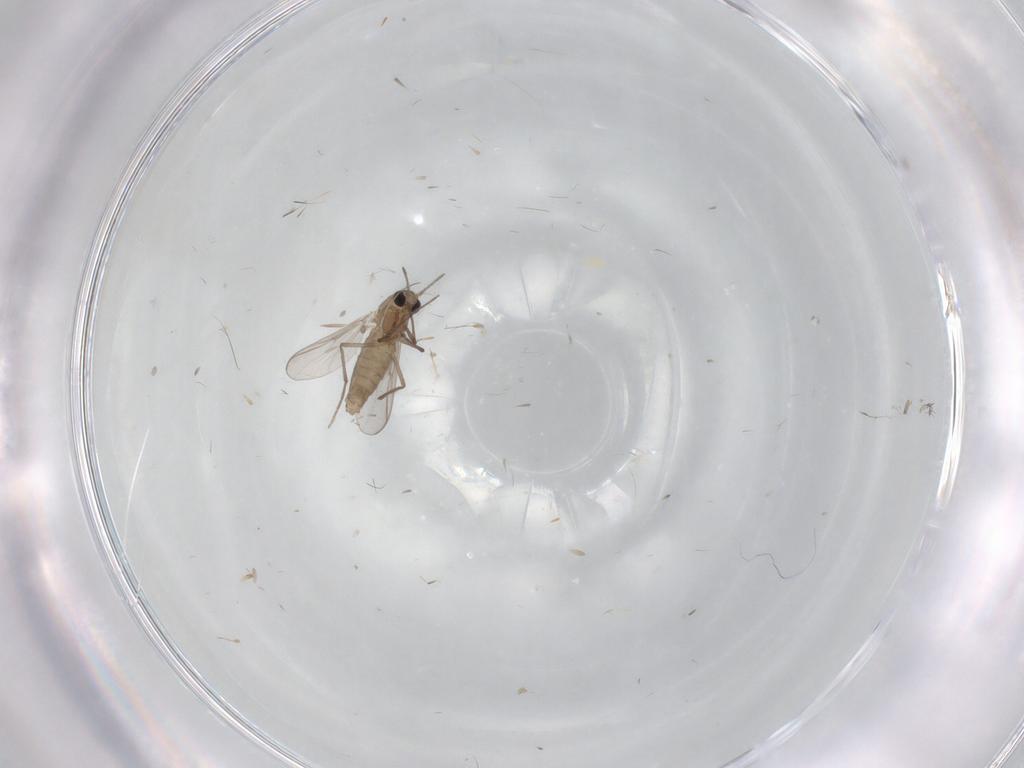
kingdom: Animalia
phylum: Arthropoda
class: Insecta
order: Diptera
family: Chironomidae
